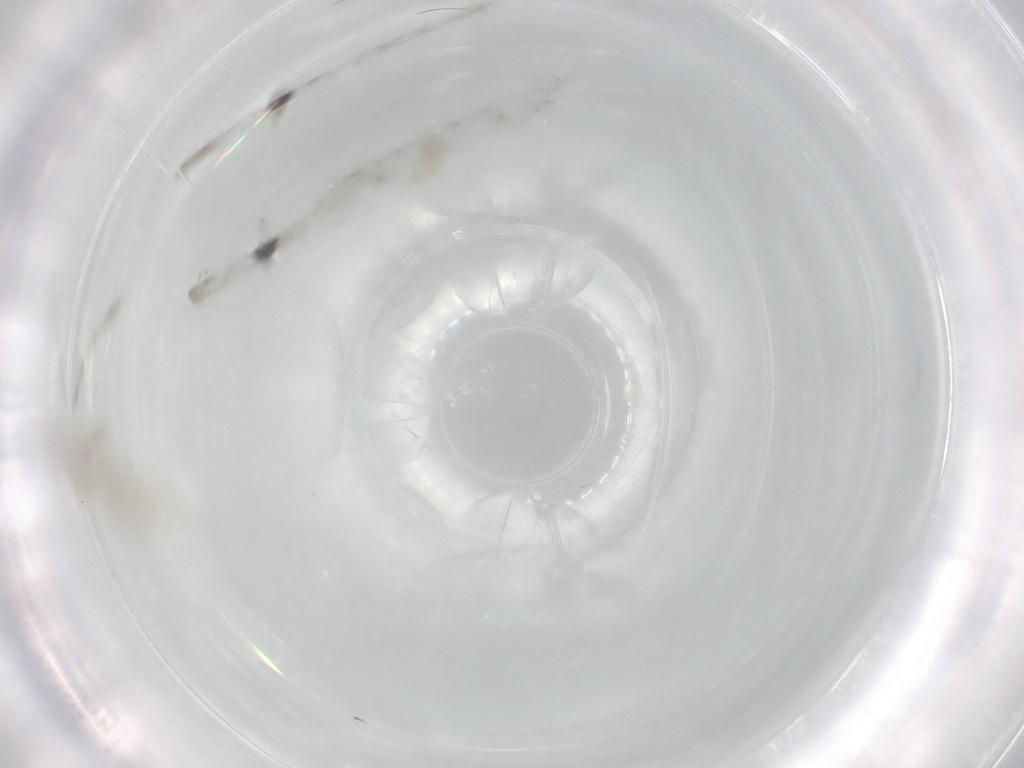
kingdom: Animalia
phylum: Arthropoda
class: Collembola
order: Entomobryomorpha
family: Entomobryidae
